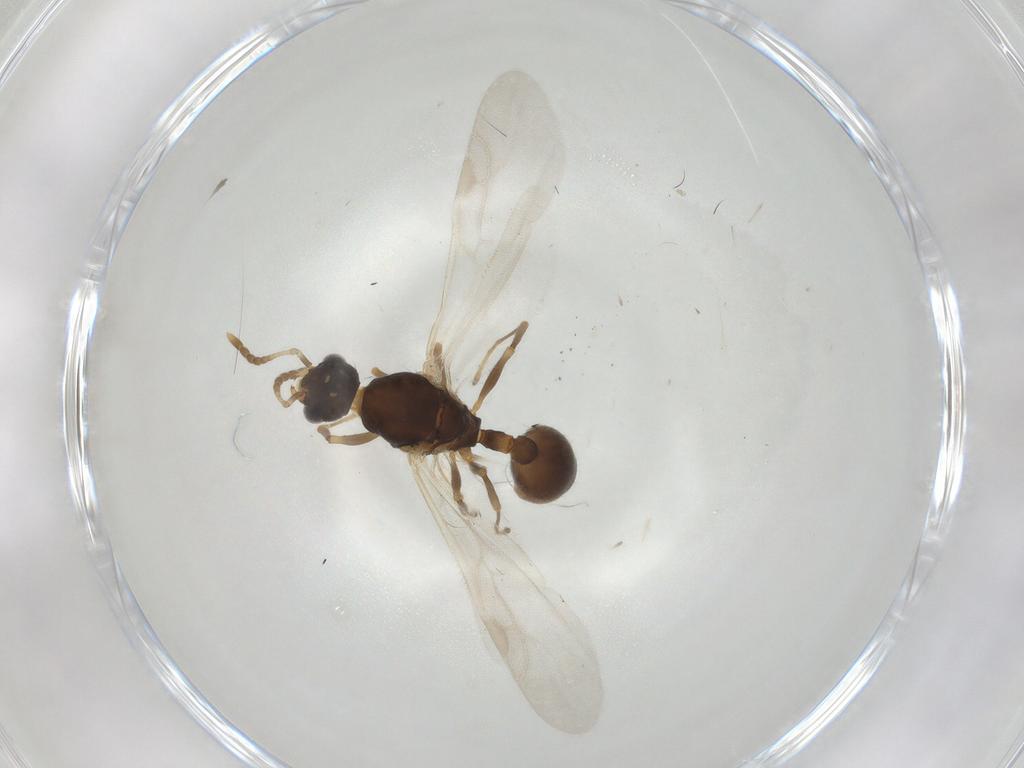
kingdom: Animalia
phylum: Arthropoda
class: Insecta
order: Hymenoptera
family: Formicidae
